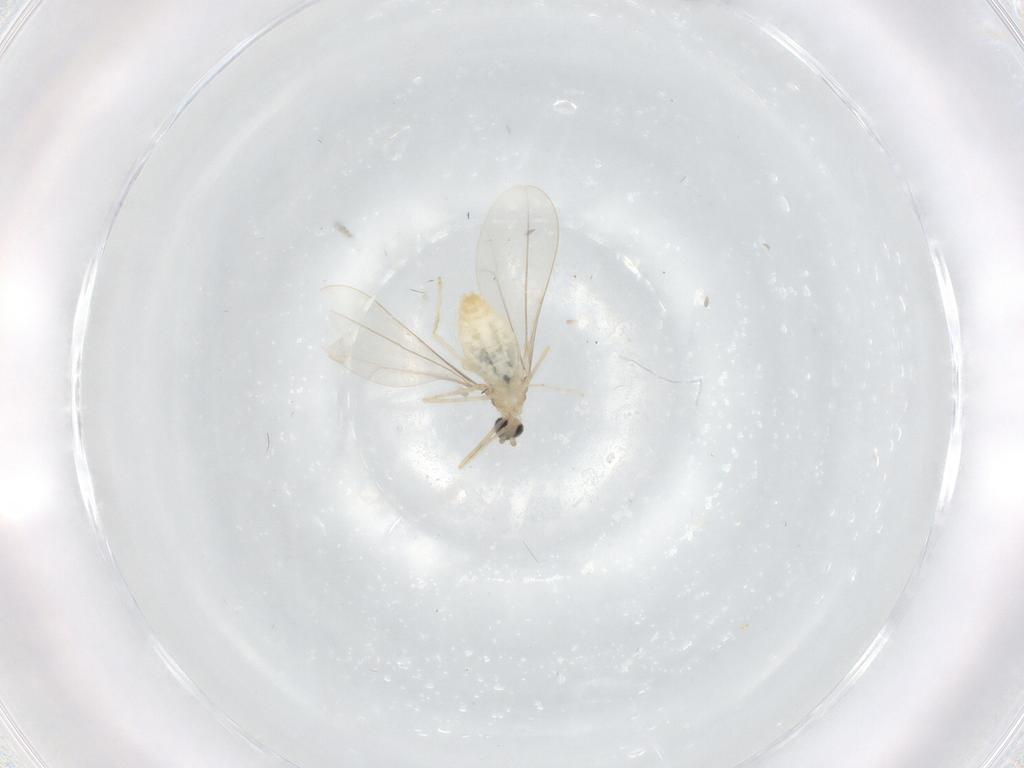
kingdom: Animalia
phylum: Arthropoda
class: Insecta
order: Diptera
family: Cecidomyiidae
